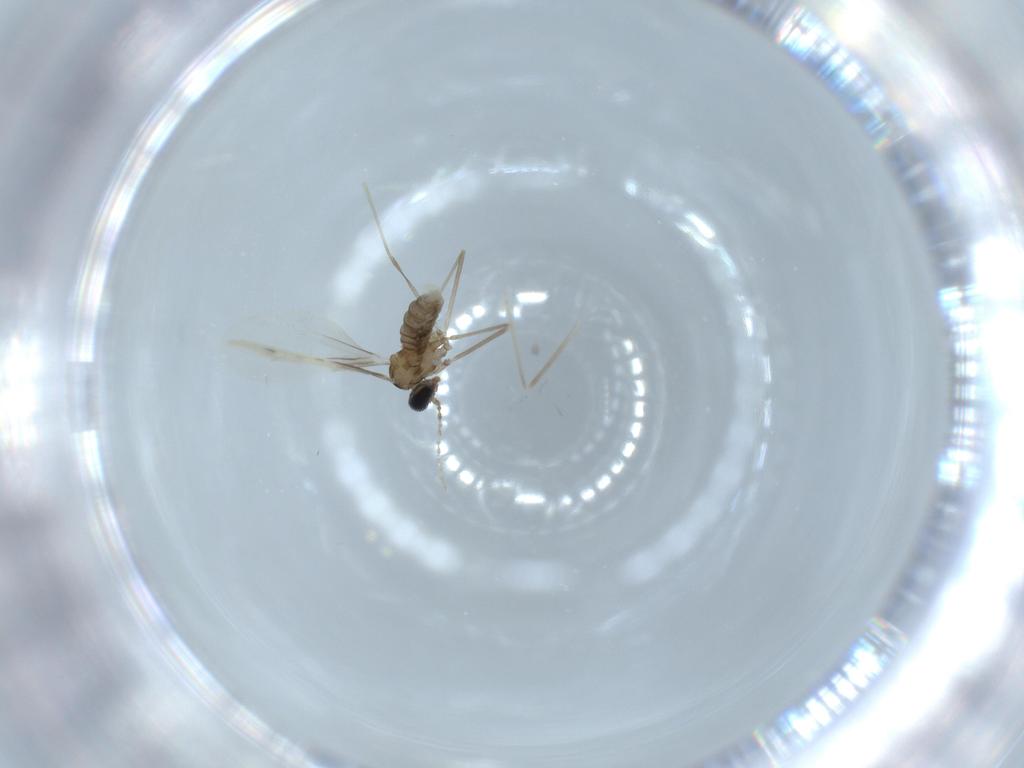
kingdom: Animalia
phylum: Arthropoda
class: Insecta
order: Diptera
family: Cecidomyiidae
